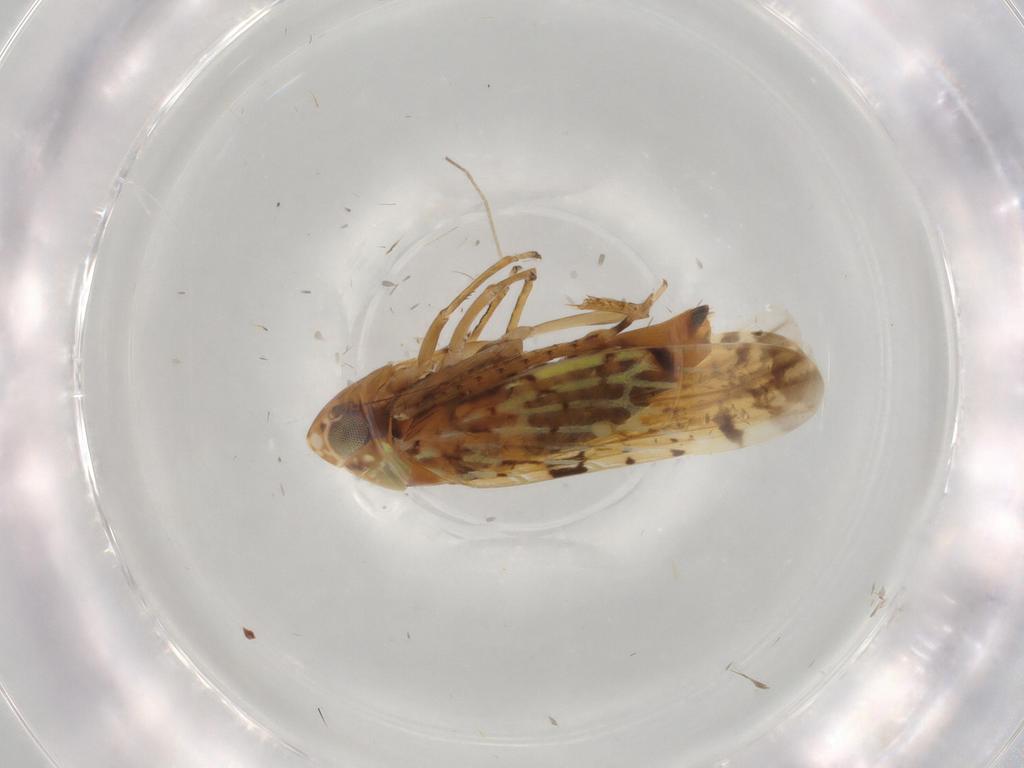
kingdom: Animalia
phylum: Arthropoda
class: Insecta
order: Hemiptera
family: Cicadellidae
